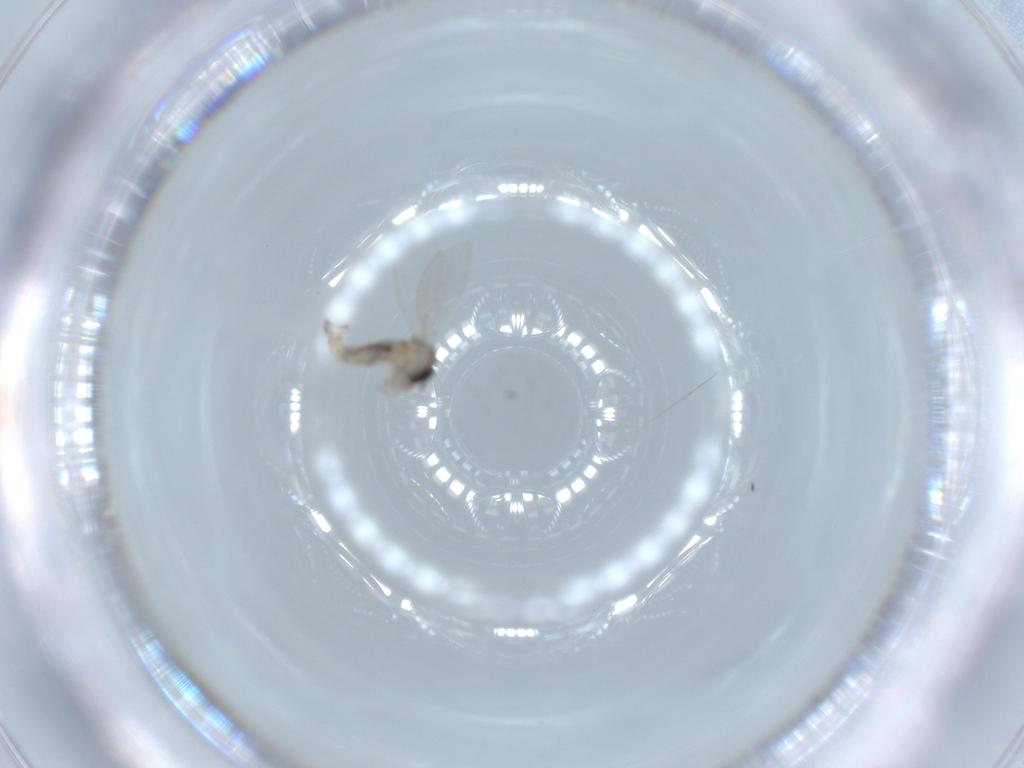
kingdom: Animalia
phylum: Arthropoda
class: Insecta
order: Diptera
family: Psychodidae
